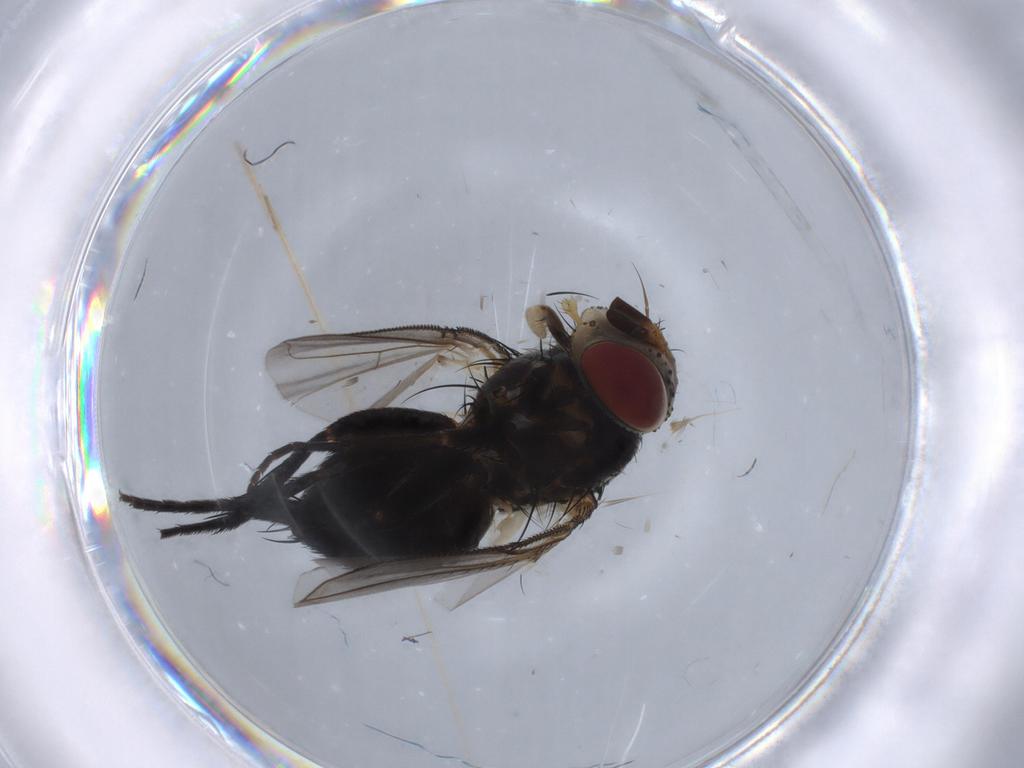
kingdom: Animalia
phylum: Arthropoda
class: Insecta
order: Diptera
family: Tachinidae
